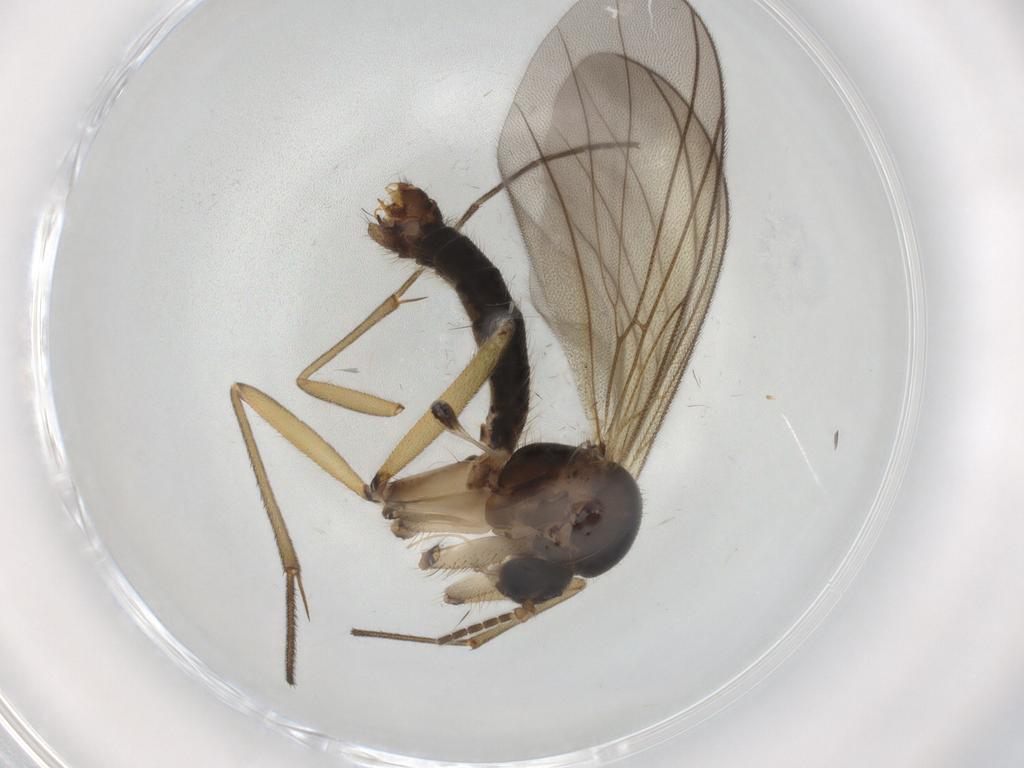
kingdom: Animalia
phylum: Arthropoda
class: Insecta
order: Diptera
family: Mycetophilidae
